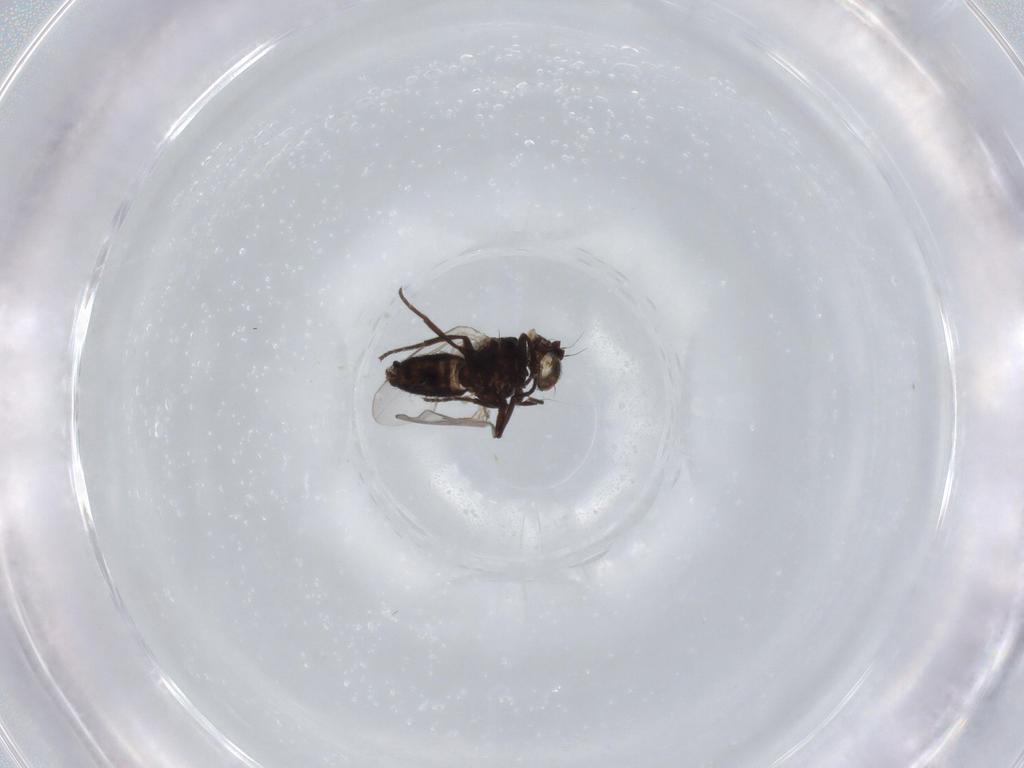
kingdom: Animalia
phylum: Arthropoda
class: Insecta
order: Diptera
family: Agromyzidae
